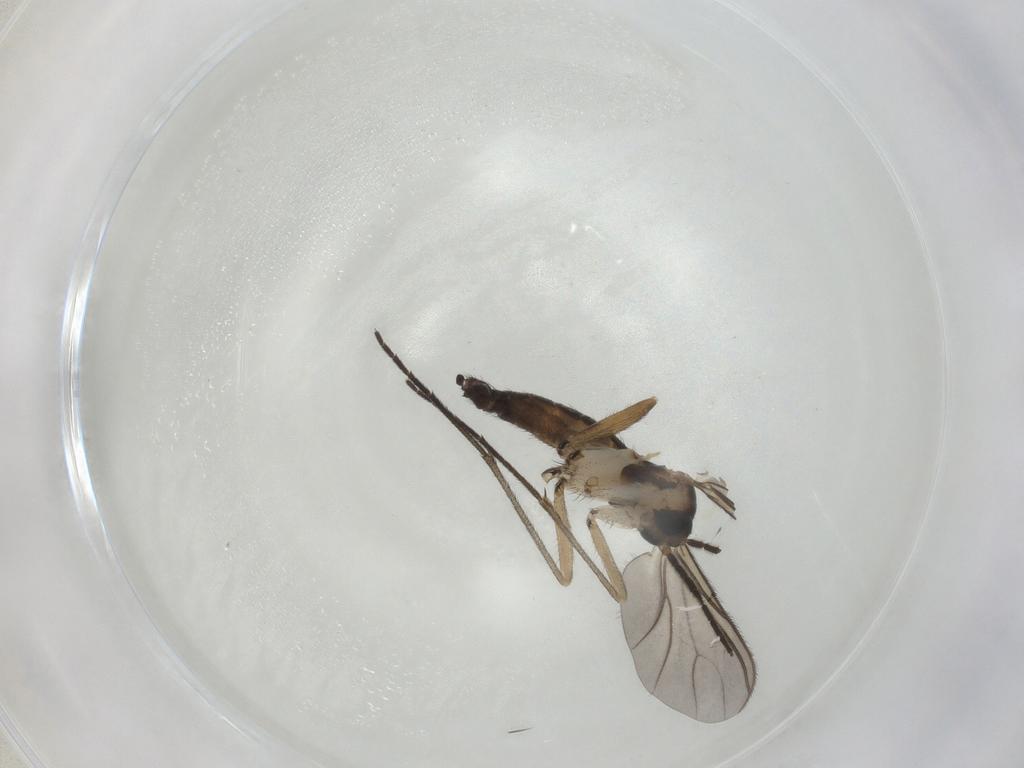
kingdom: Animalia
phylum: Arthropoda
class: Insecta
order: Diptera
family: Sciaridae
